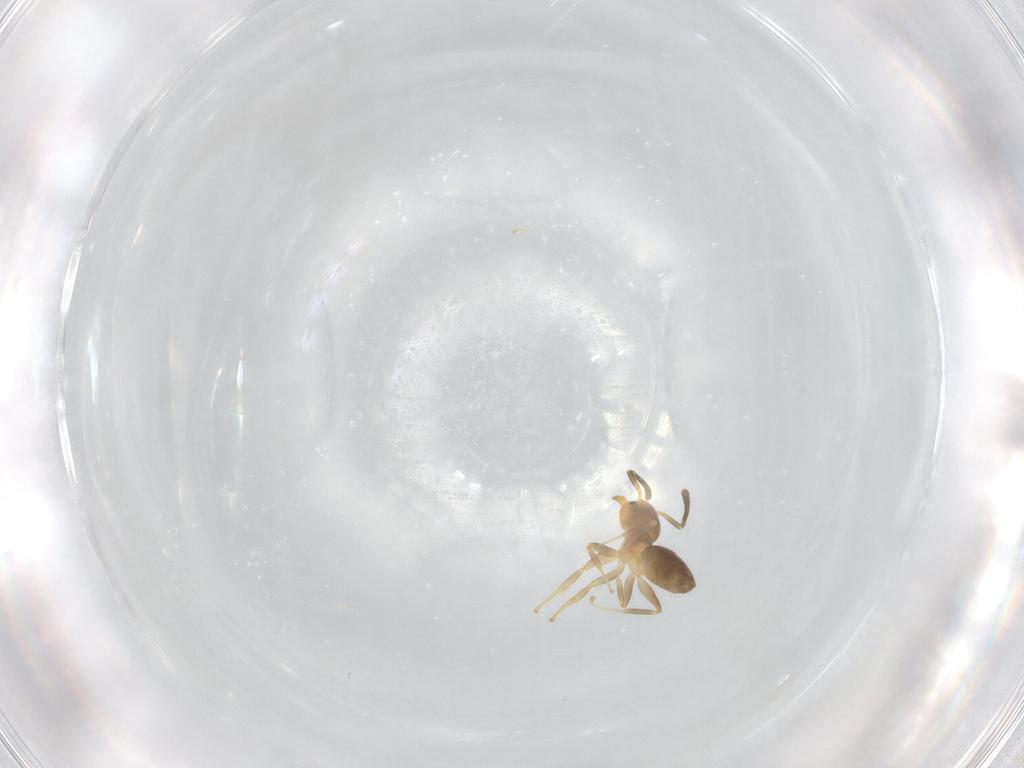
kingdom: Animalia
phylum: Arthropoda
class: Insecta
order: Hymenoptera
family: Formicidae
